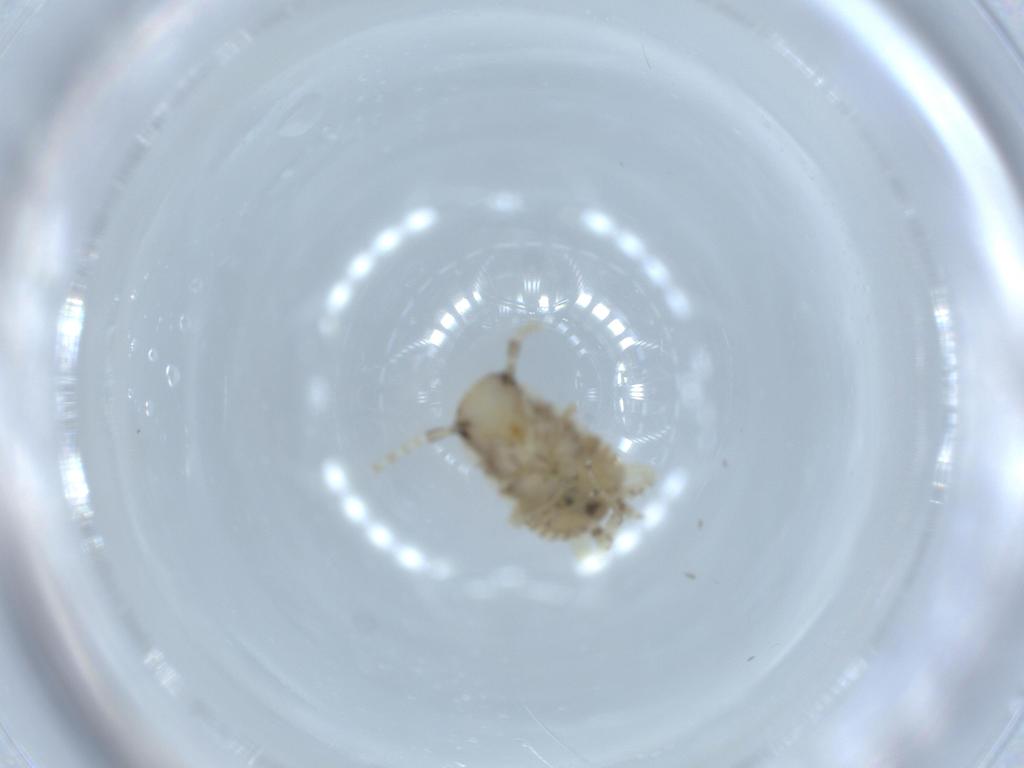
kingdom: Animalia
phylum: Arthropoda
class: Insecta
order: Blattodea
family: Ectobiidae
